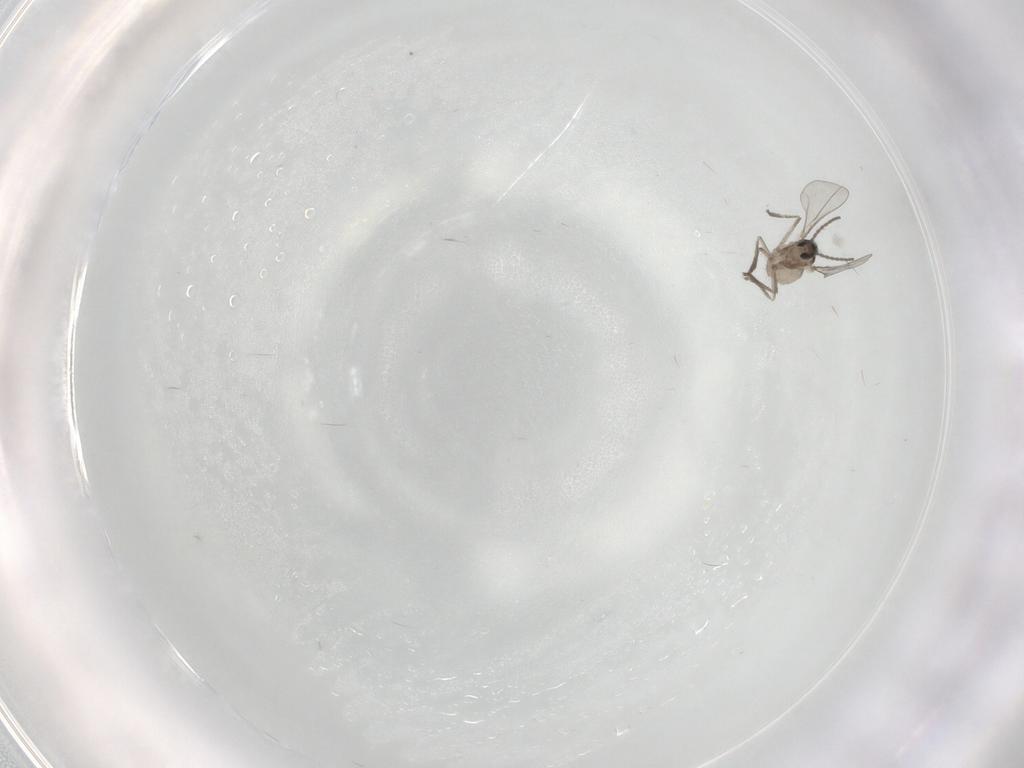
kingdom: Animalia
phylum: Arthropoda
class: Insecta
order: Diptera
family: Cecidomyiidae
